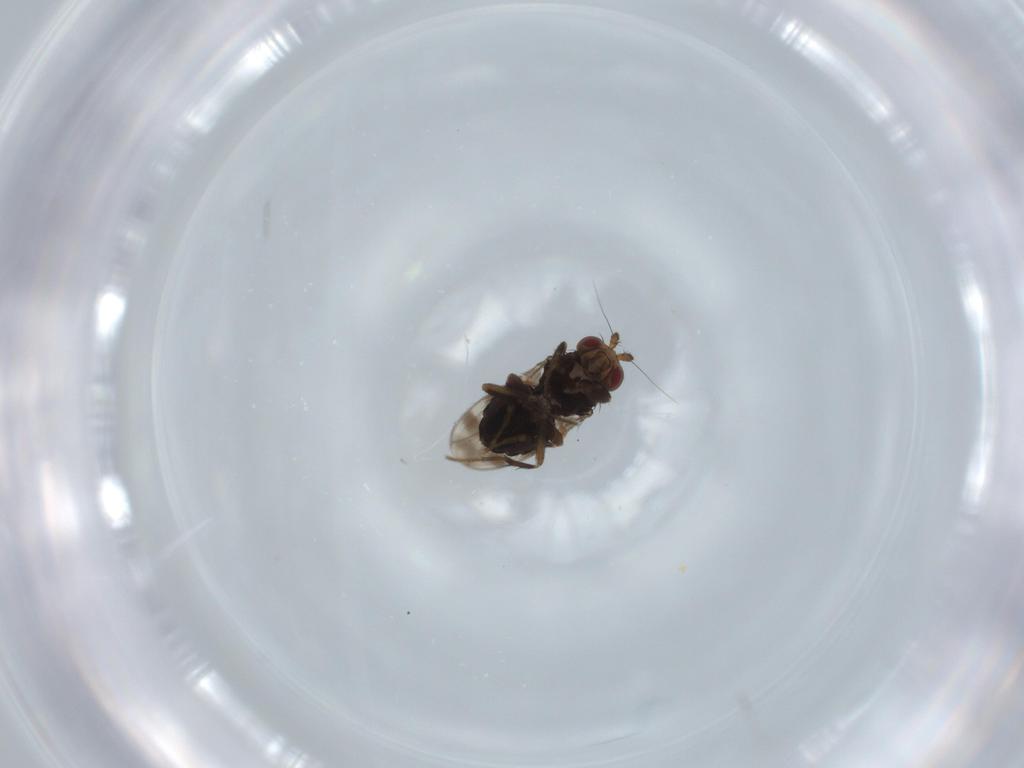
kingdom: Animalia
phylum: Arthropoda
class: Insecta
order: Diptera
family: Sphaeroceridae
